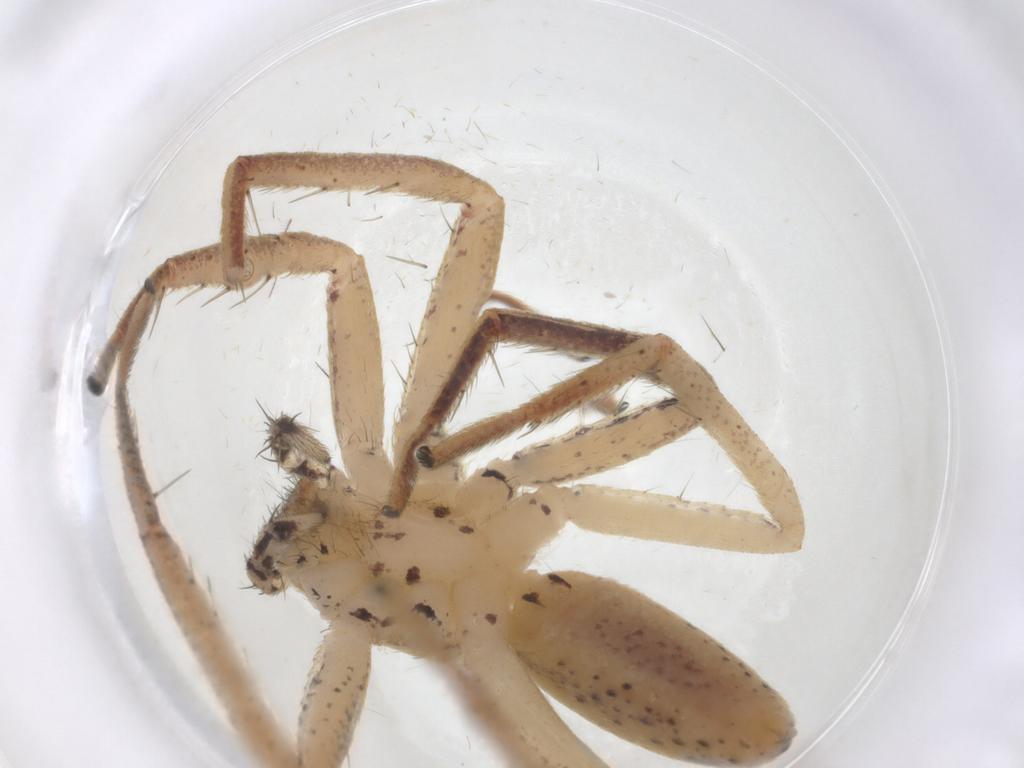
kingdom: Animalia
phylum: Arthropoda
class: Arachnida
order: Araneae
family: Philodromidae
